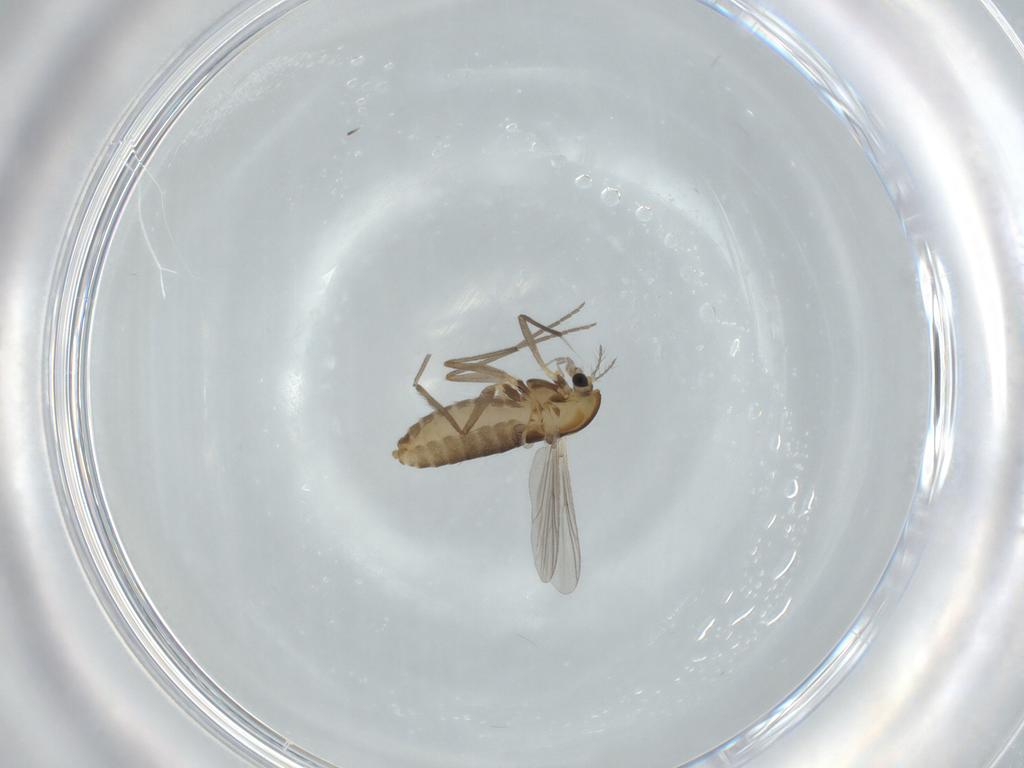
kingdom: Animalia
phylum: Arthropoda
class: Insecta
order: Diptera
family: Chironomidae
